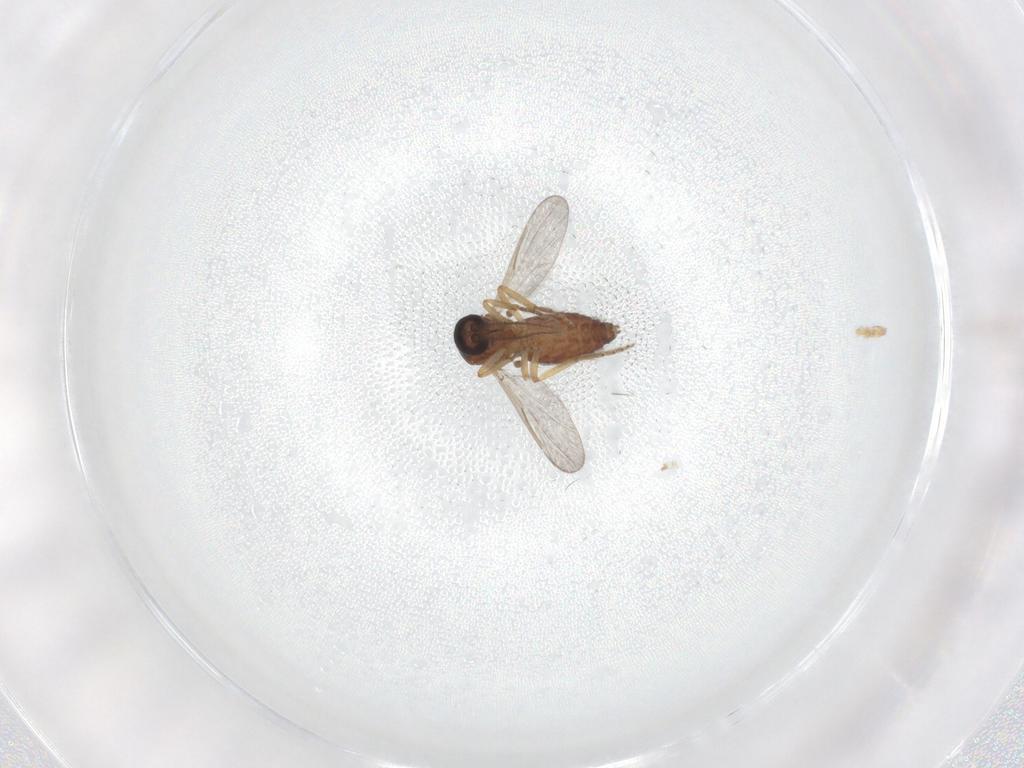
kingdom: Animalia
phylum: Arthropoda
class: Insecta
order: Diptera
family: Ceratopogonidae
